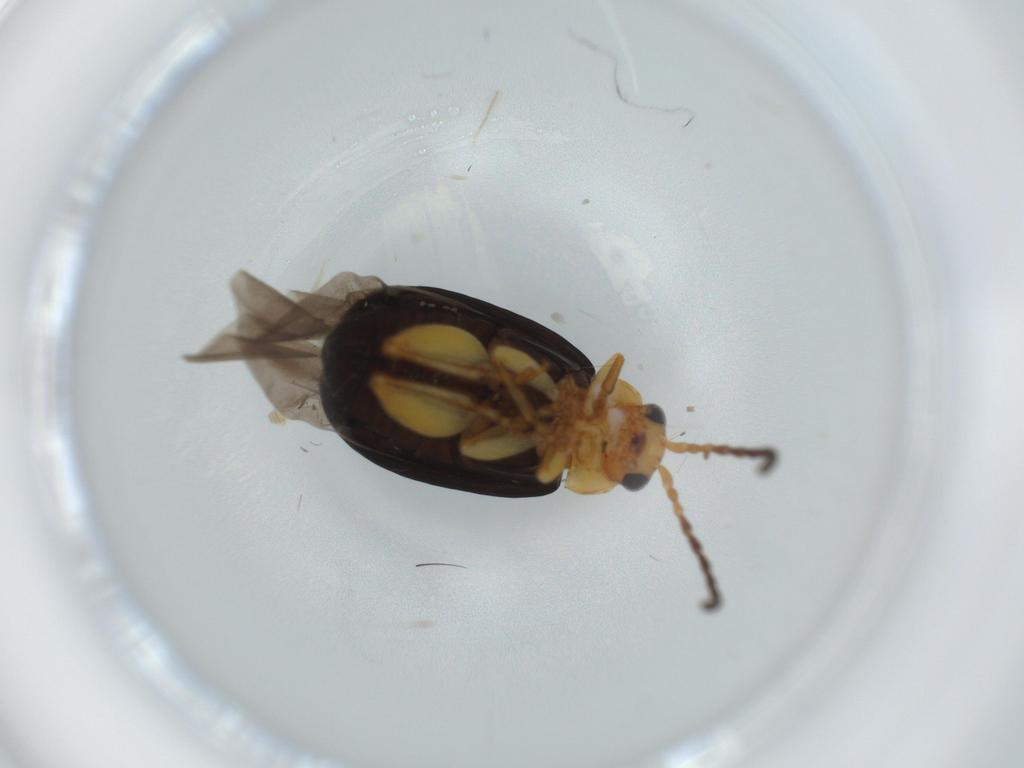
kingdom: Animalia
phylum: Arthropoda
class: Insecta
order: Coleoptera
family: Chrysomelidae
